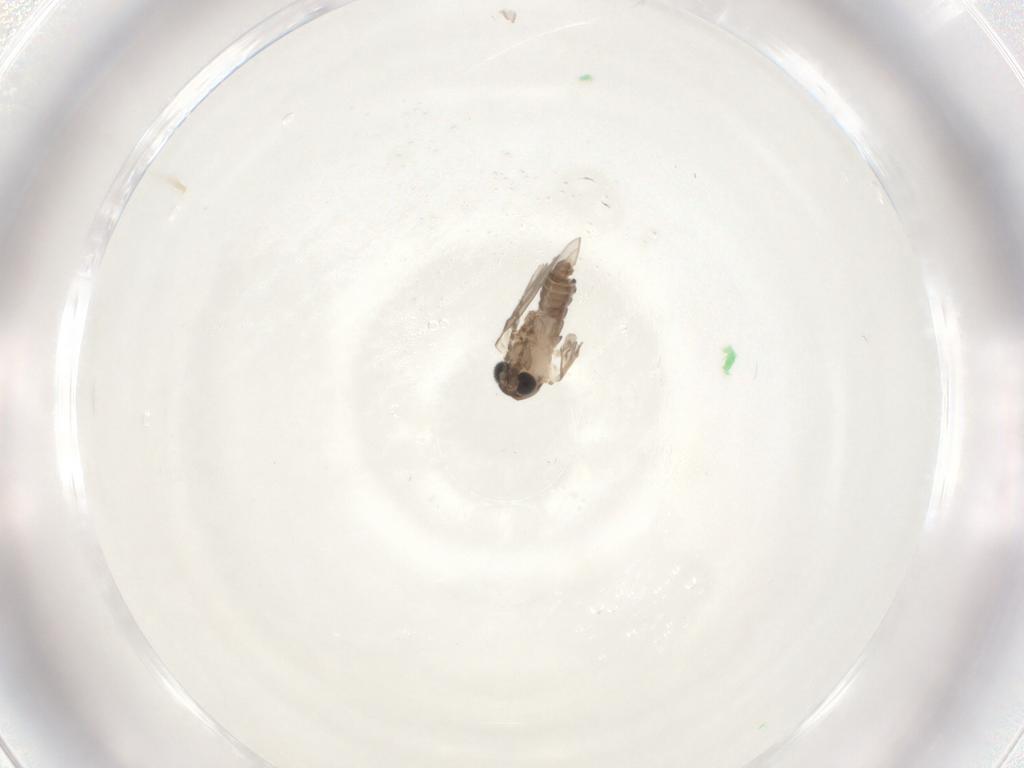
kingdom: Animalia
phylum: Arthropoda
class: Insecta
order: Diptera
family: Psychodidae
